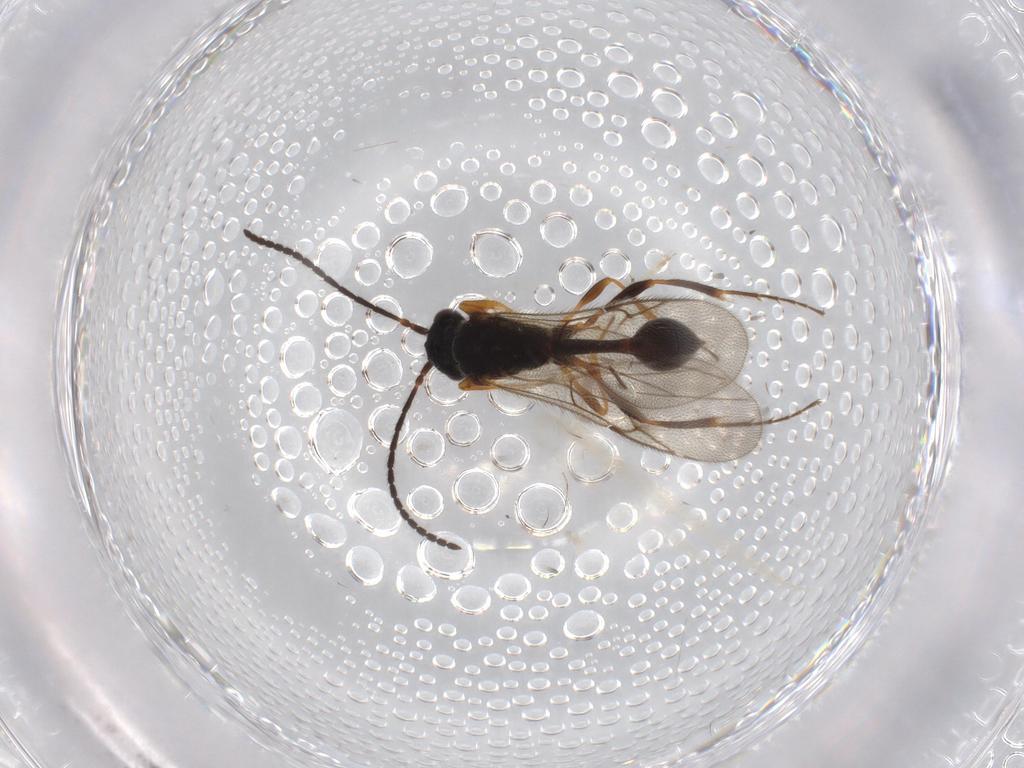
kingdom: Animalia
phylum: Arthropoda
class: Insecta
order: Hymenoptera
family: Diapriidae
